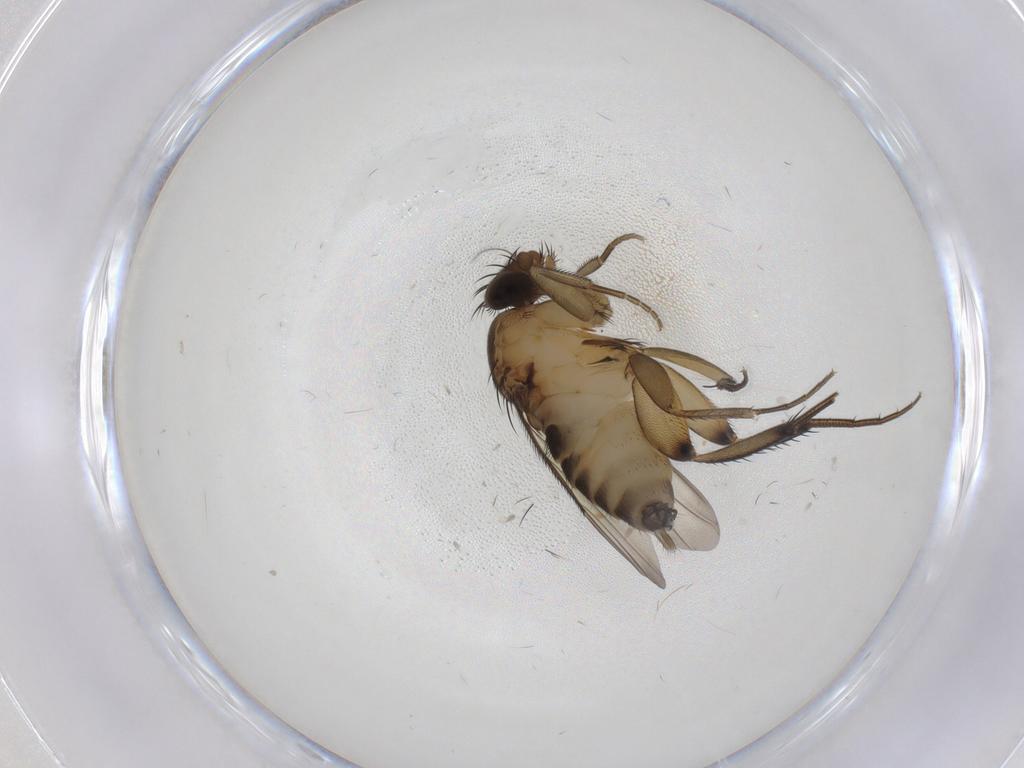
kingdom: Animalia
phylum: Arthropoda
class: Insecta
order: Diptera
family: Phoridae
